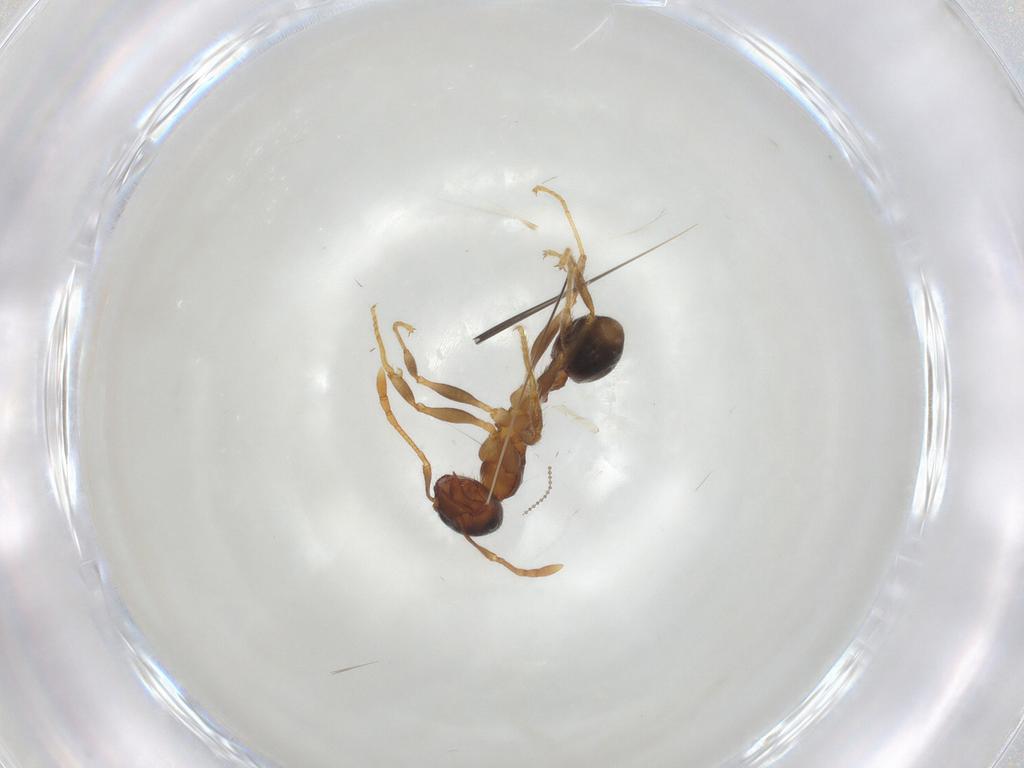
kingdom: Animalia
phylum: Arthropoda
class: Insecta
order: Hymenoptera
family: Formicidae
